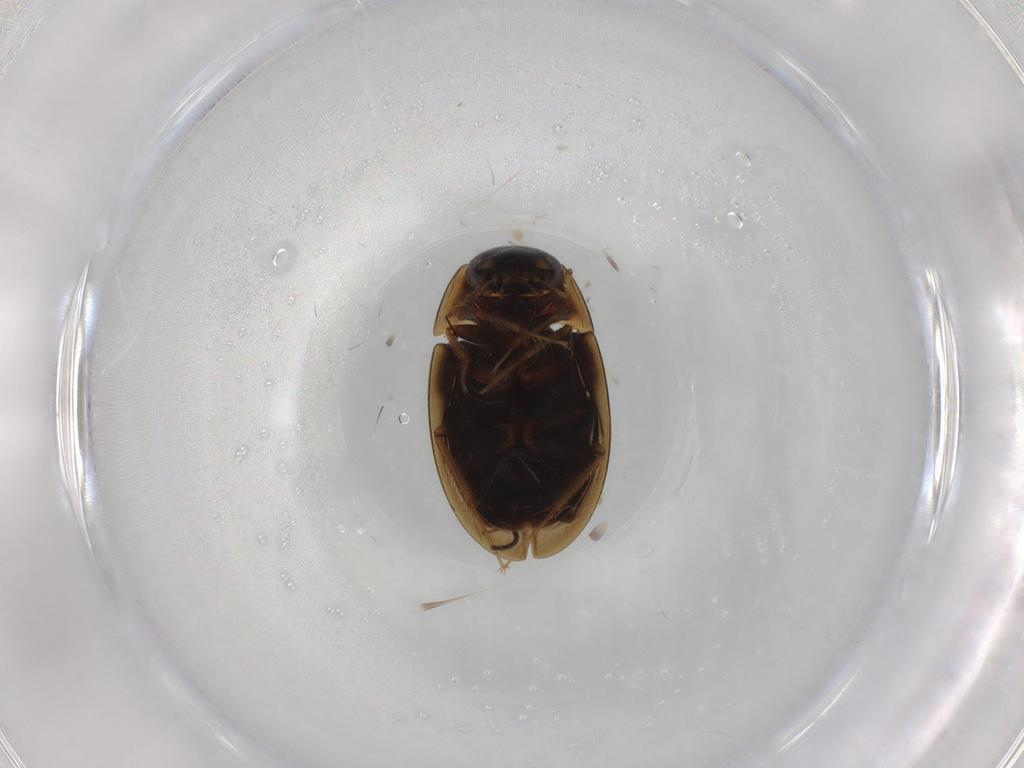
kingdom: Animalia
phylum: Arthropoda
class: Insecta
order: Coleoptera
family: Hydrophilidae
